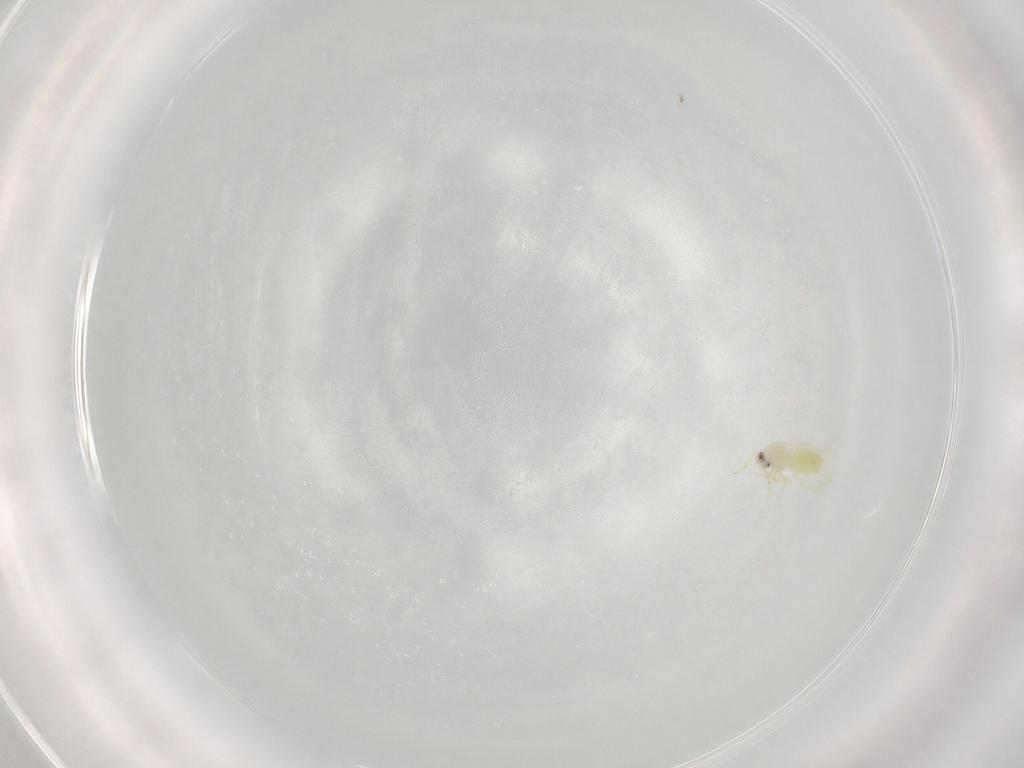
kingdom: Animalia
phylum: Arthropoda
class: Insecta
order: Hemiptera
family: Aleyrodidae
